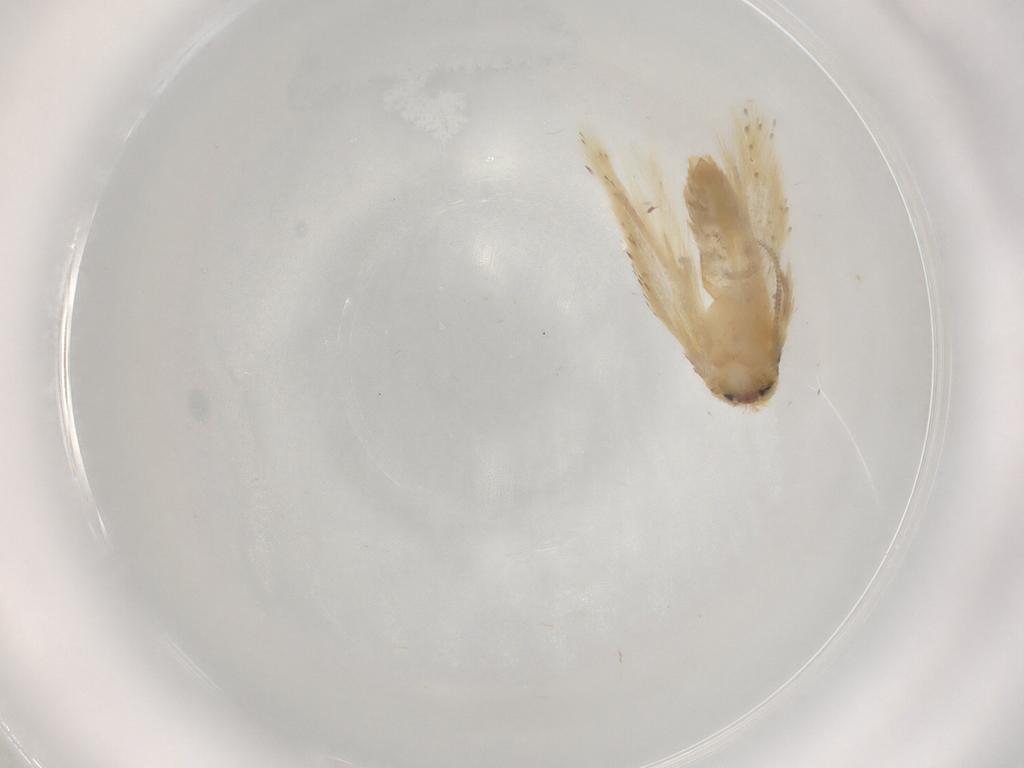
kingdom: Animalia
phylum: Arthropoda
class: Insecta
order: Lepidoptera
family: Nepticulidae
